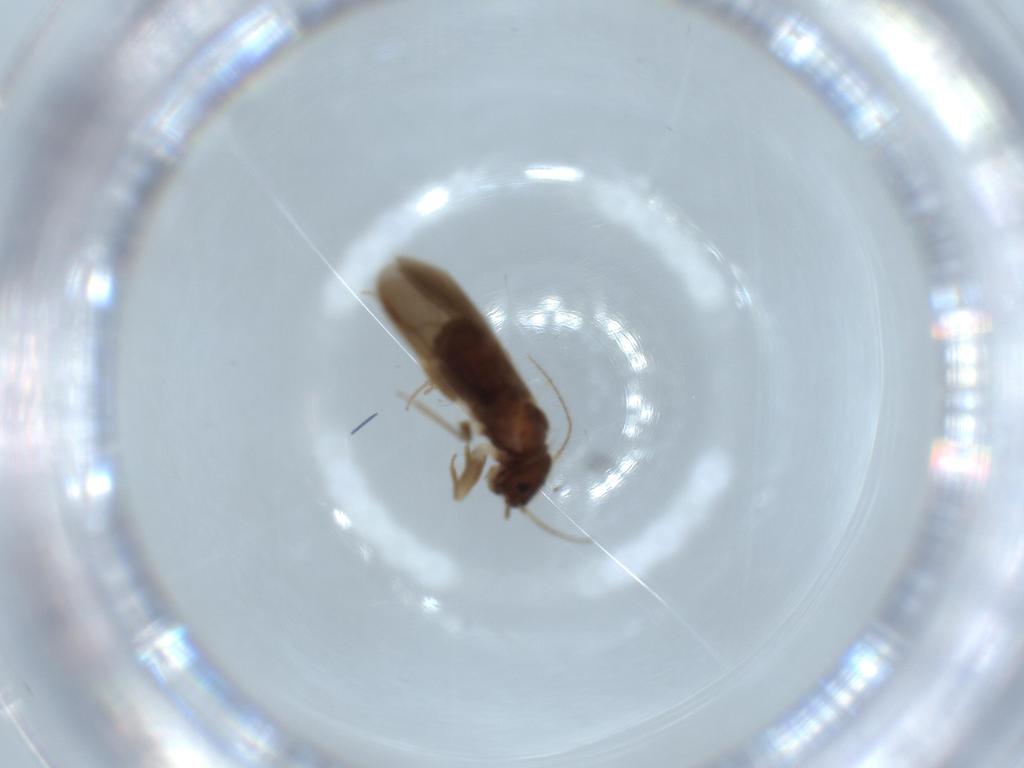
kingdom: Animalia
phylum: Arthropoda
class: Insecta
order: Psocodea
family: Archipsocidae
